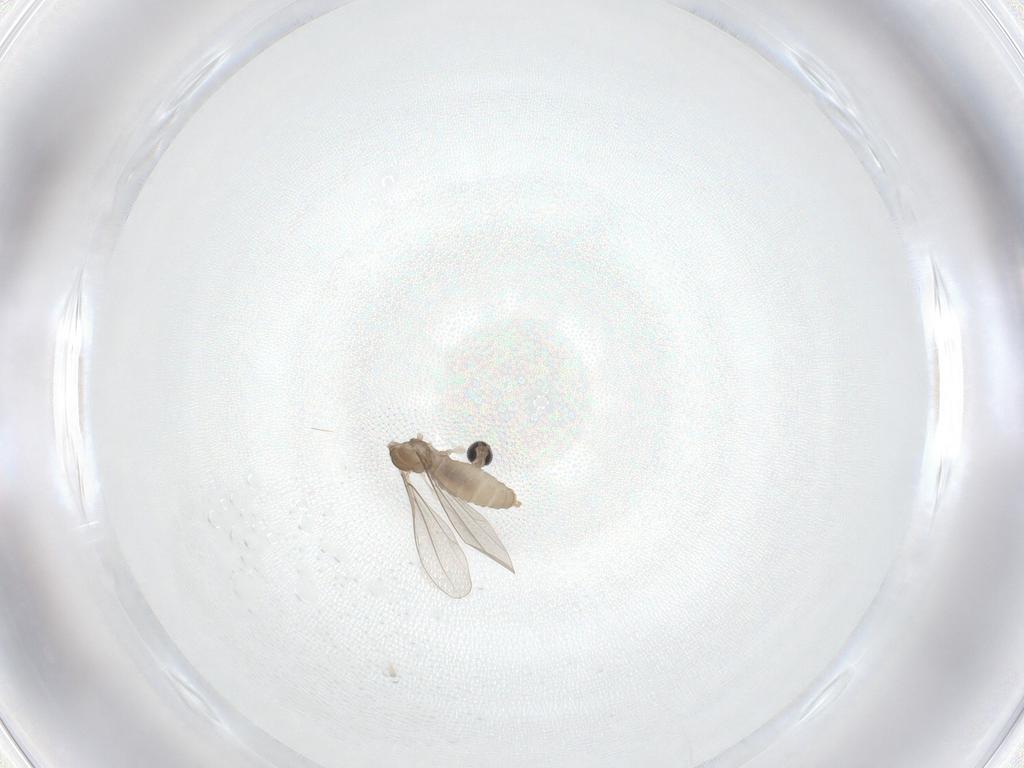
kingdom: Animalia
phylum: Arthropoda
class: Insecta
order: Diptera
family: Cecidomyiidae
